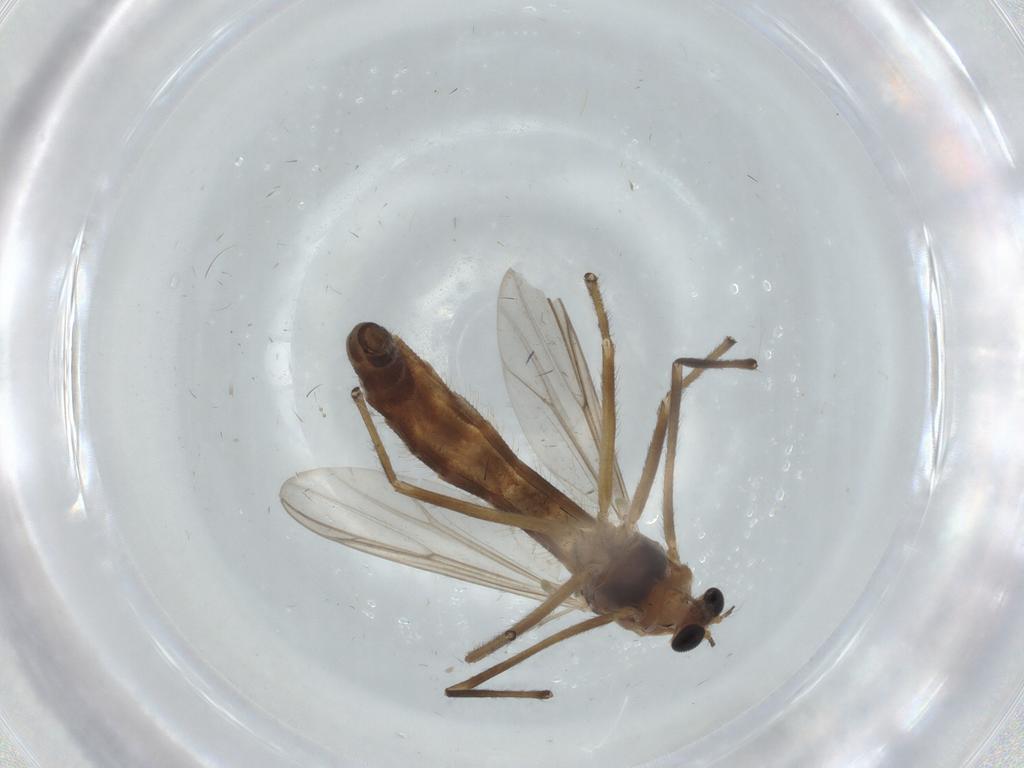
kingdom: Animalia
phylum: Arthropoda
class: Insecta
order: Diptera
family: Chironomidae
